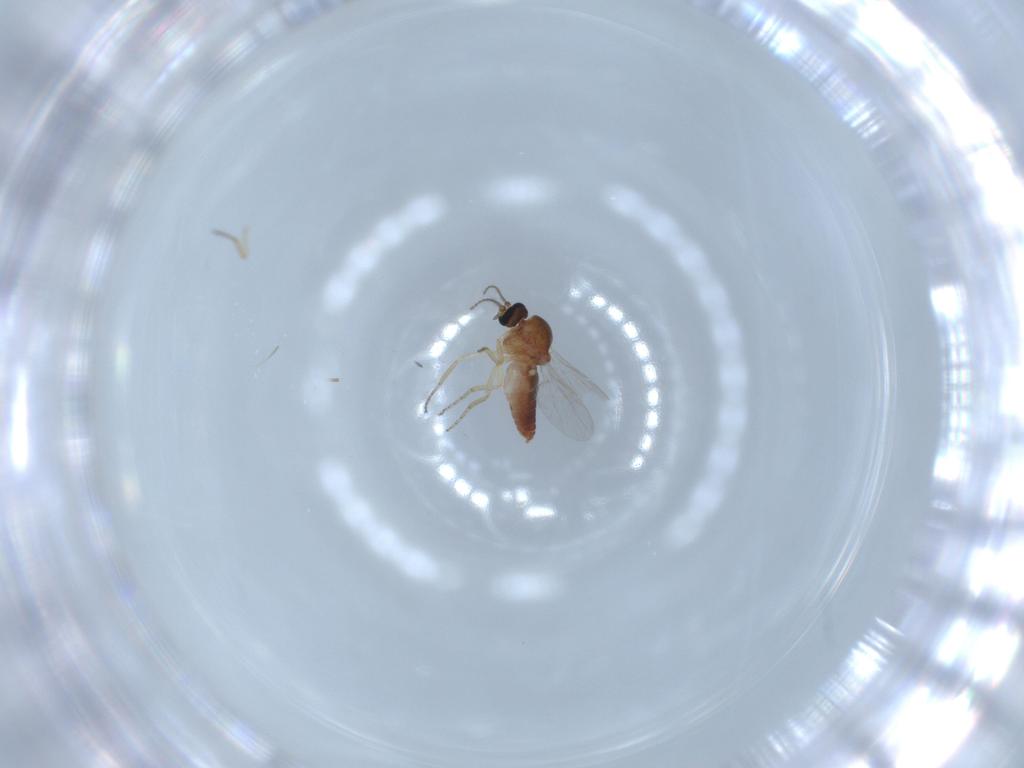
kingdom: Animalia
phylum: Arthropoda
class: Insecta
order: Diptera
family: Ceratopogonidae
